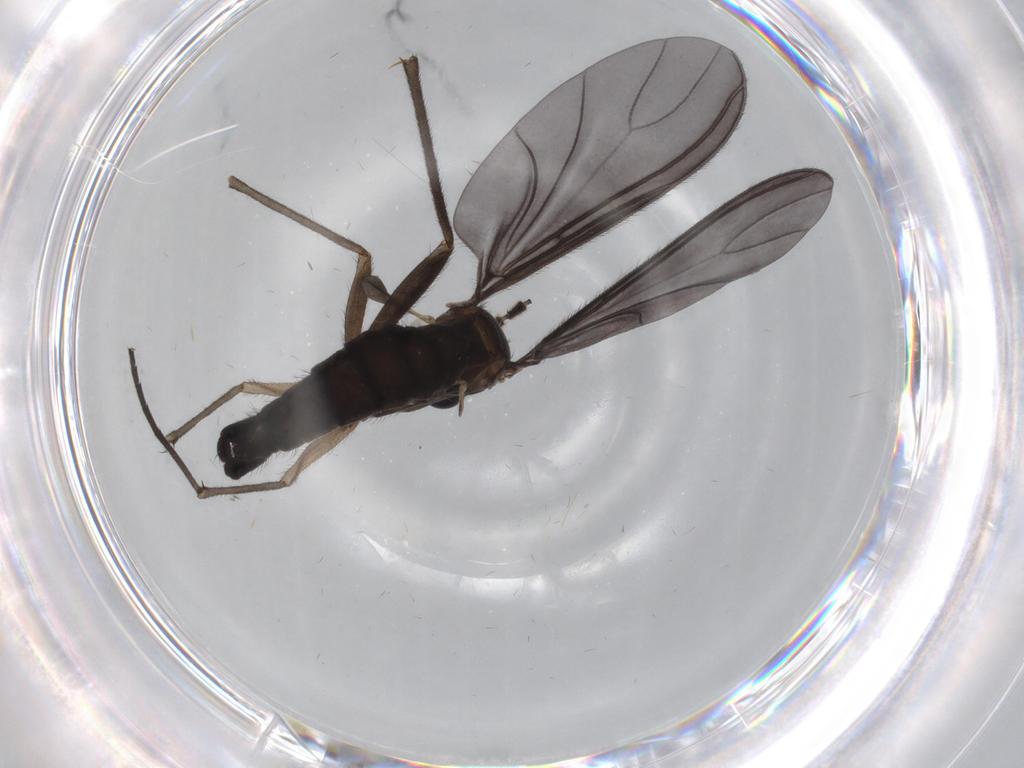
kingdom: Animalia
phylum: Arthropoda
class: Insecta
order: Diptera
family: Sciaridae
